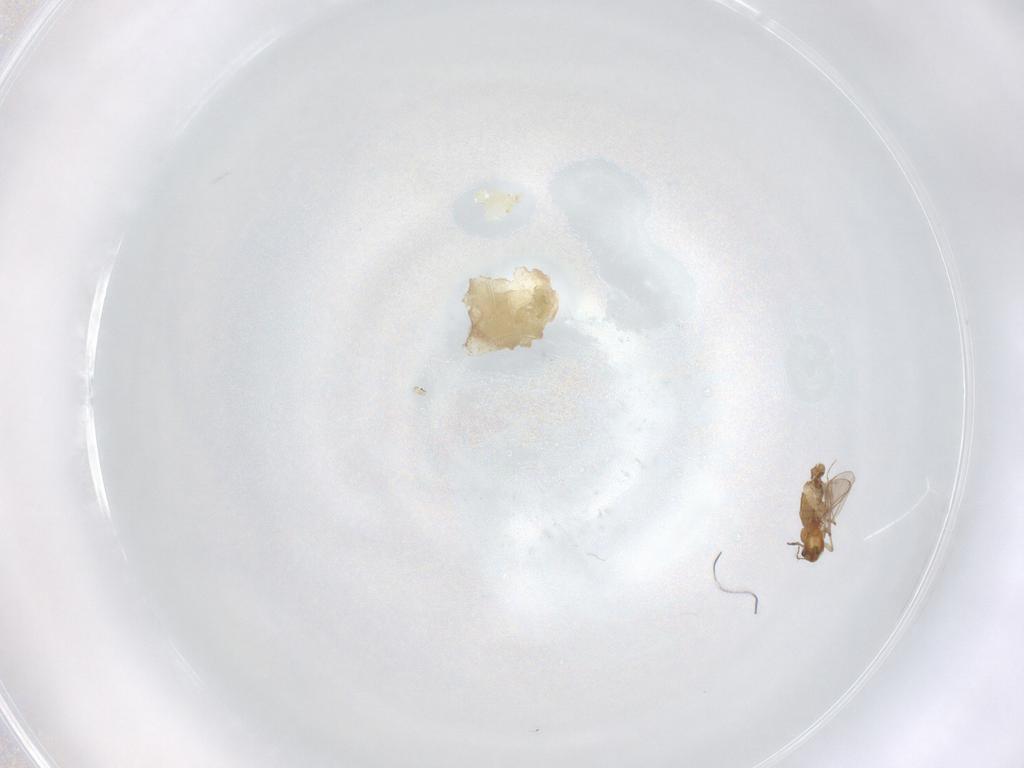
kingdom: Animalia
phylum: Arthropoda
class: Insecta
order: Diptera
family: Chironomidae
